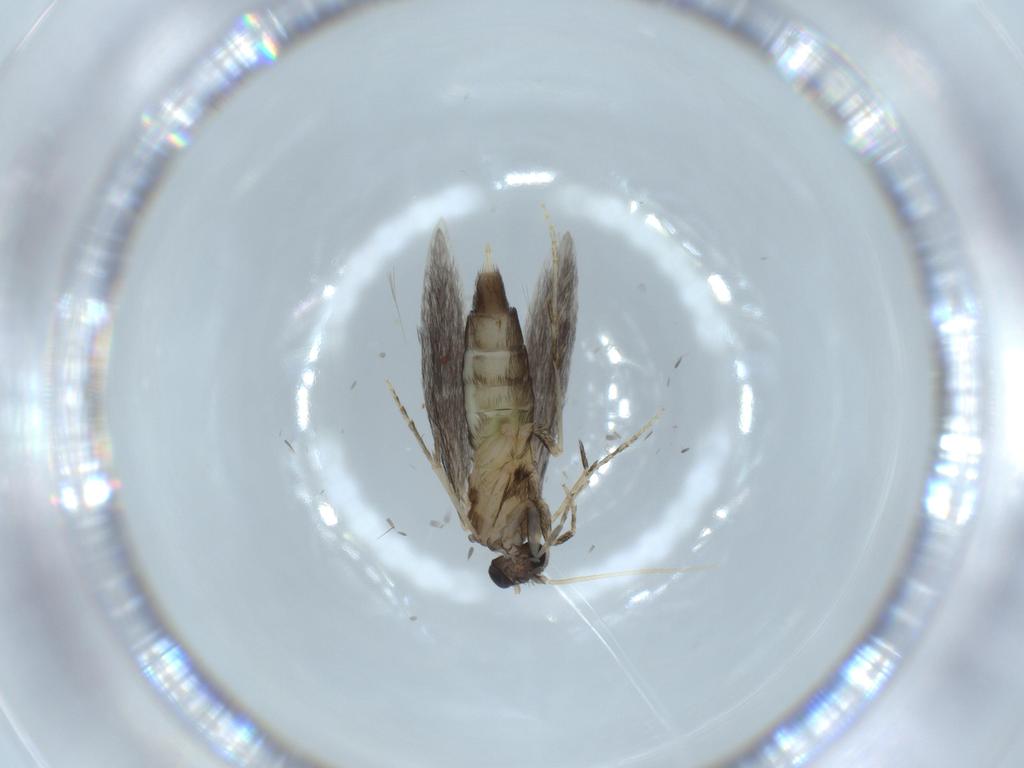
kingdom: Animalia
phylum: Arthropoda
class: Insecta
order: Trichoptera
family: Hydroptilidae
